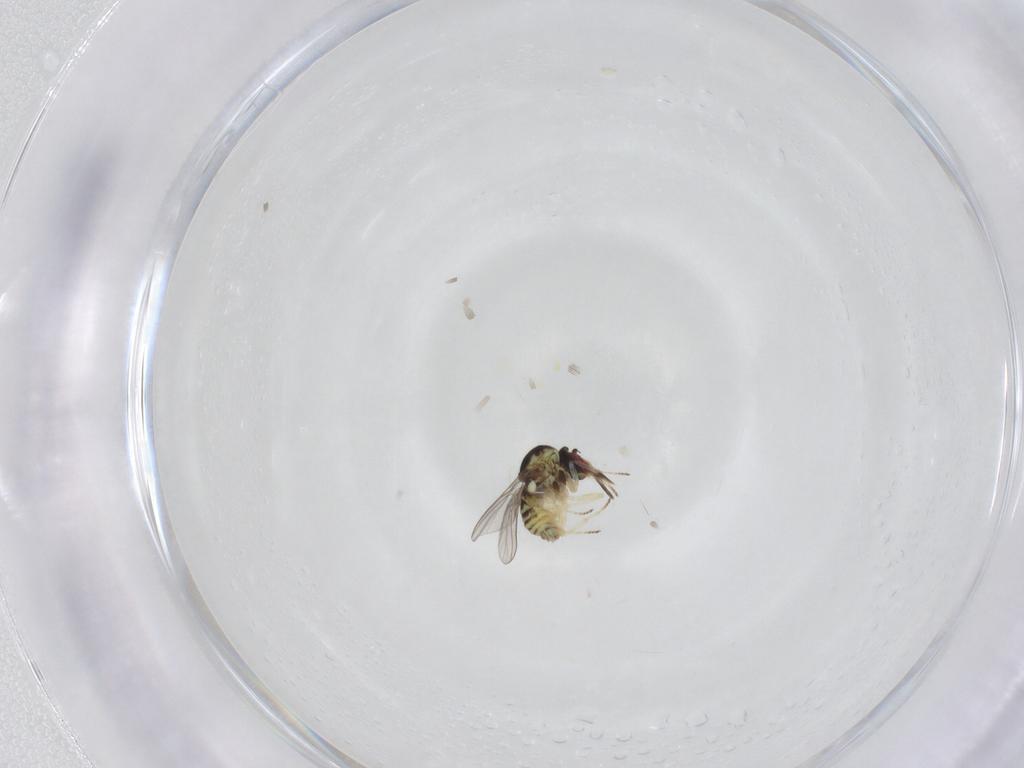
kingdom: Animalia
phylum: Arthropoda
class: Insecta
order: Diptera
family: Mythicomyiidae
